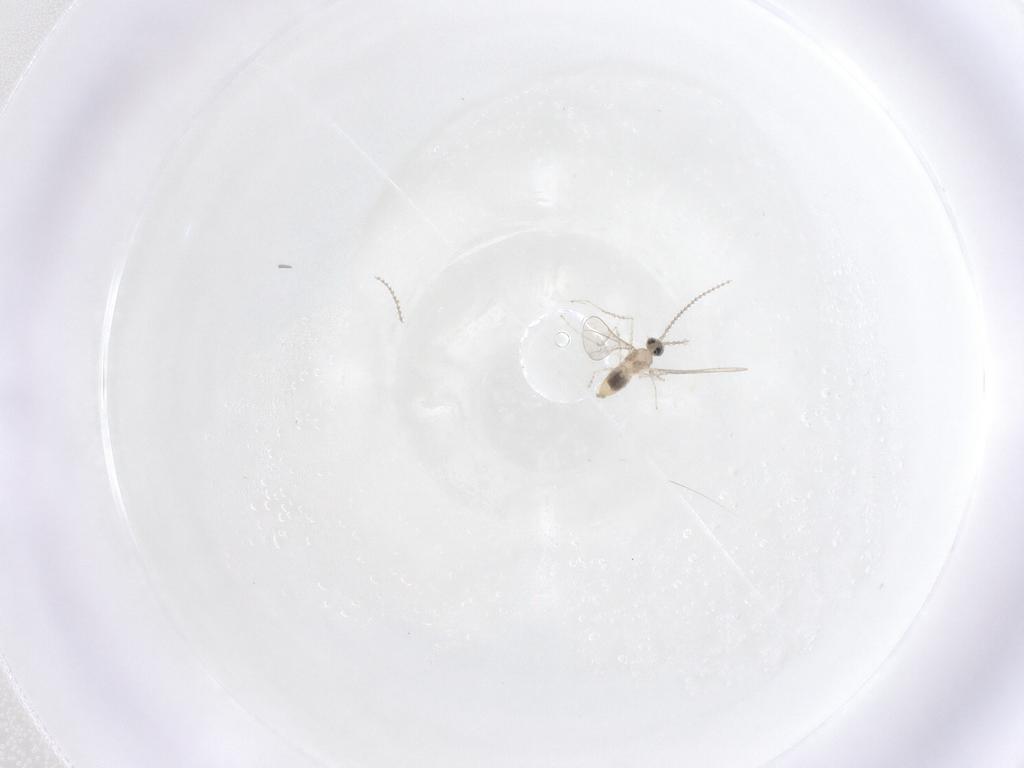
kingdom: Animalia
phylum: Arthropoda
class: Insecta
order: Diptera
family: Cecidomyiidae
